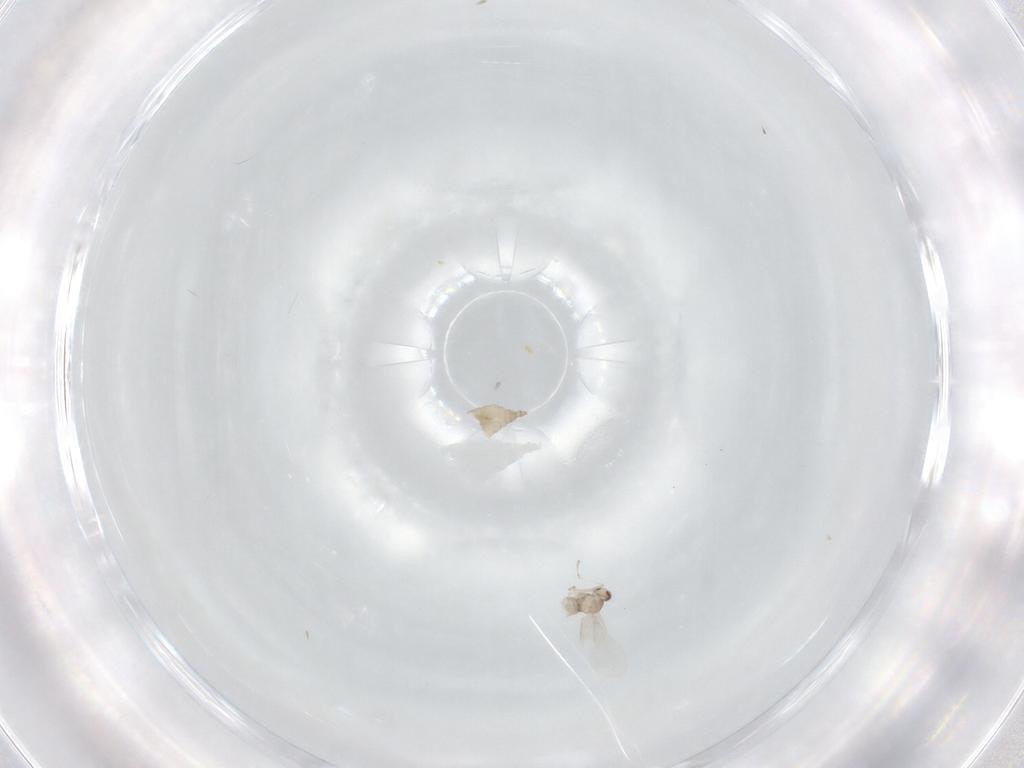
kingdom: Animalia
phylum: Arthropoda
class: Insecta
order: Diptera
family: Cecidomyiidae
